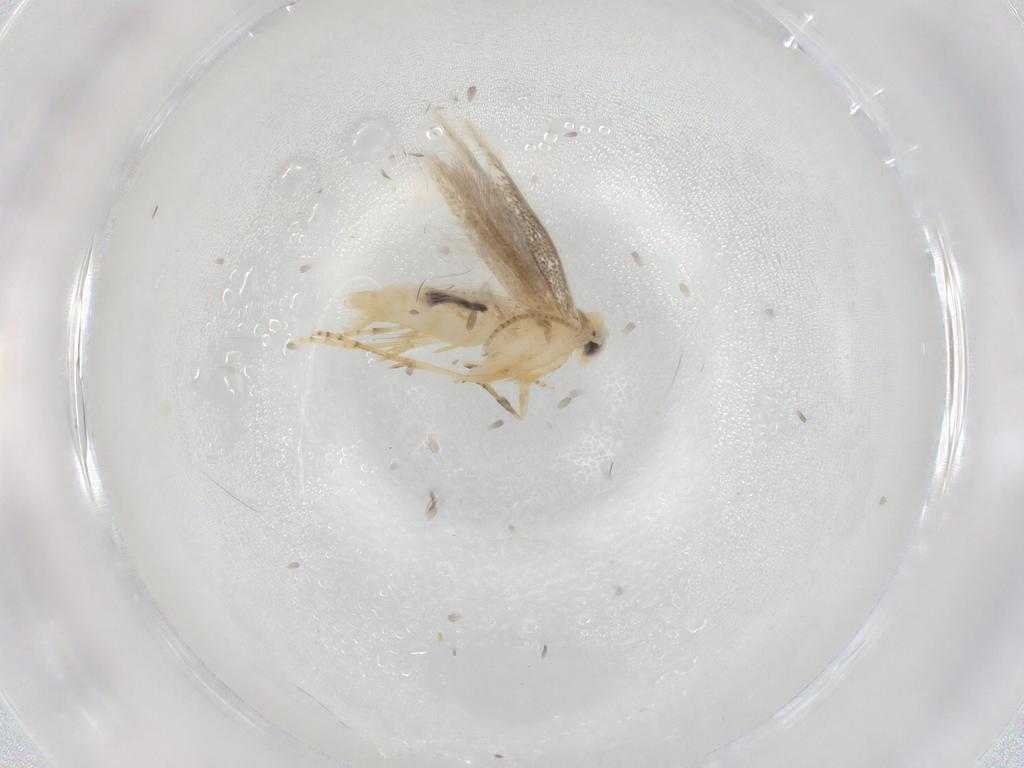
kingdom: Animalia
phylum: Arthropoda
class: Insecta
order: Lepidoptera
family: Bucculatricidae
